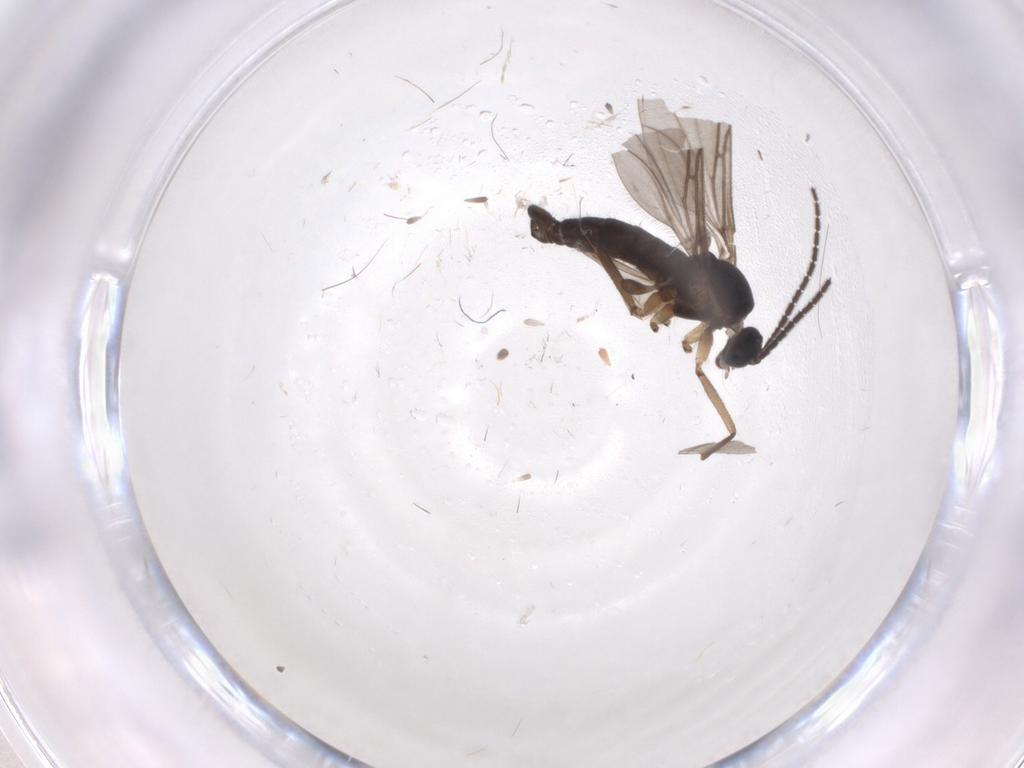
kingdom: Animalia
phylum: Arthropoda
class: Insecta
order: Diptera
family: Sciaridae
